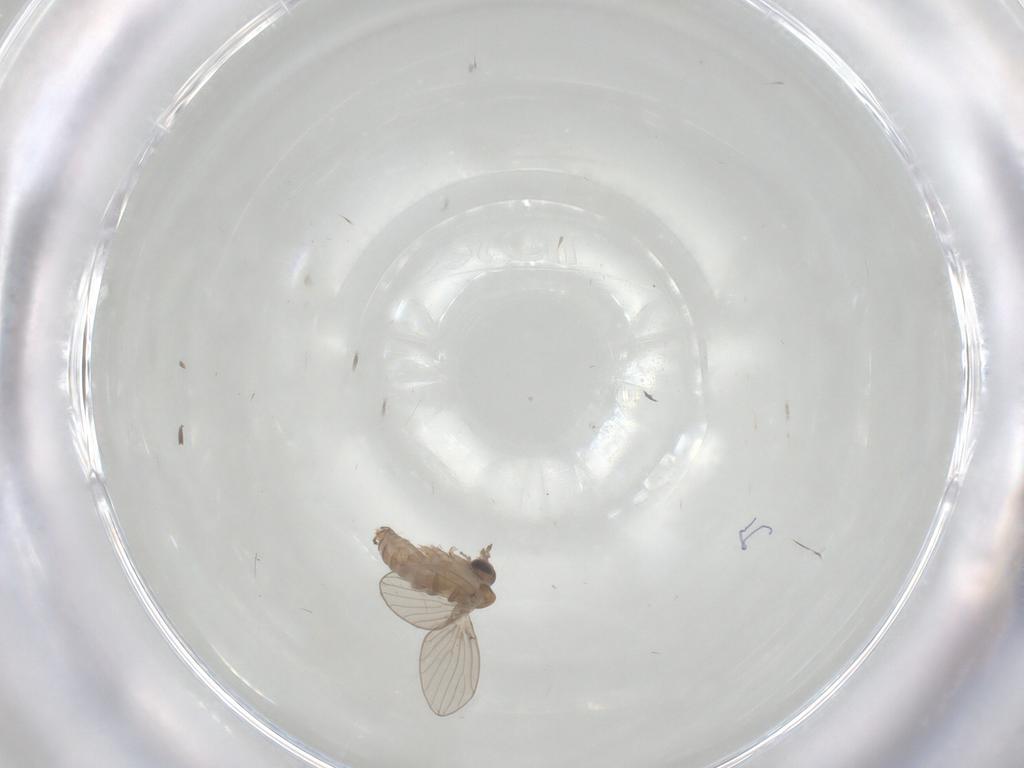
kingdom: Animalia
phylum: Arthropoda
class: Insecta
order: Diptera
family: Psychodidae
